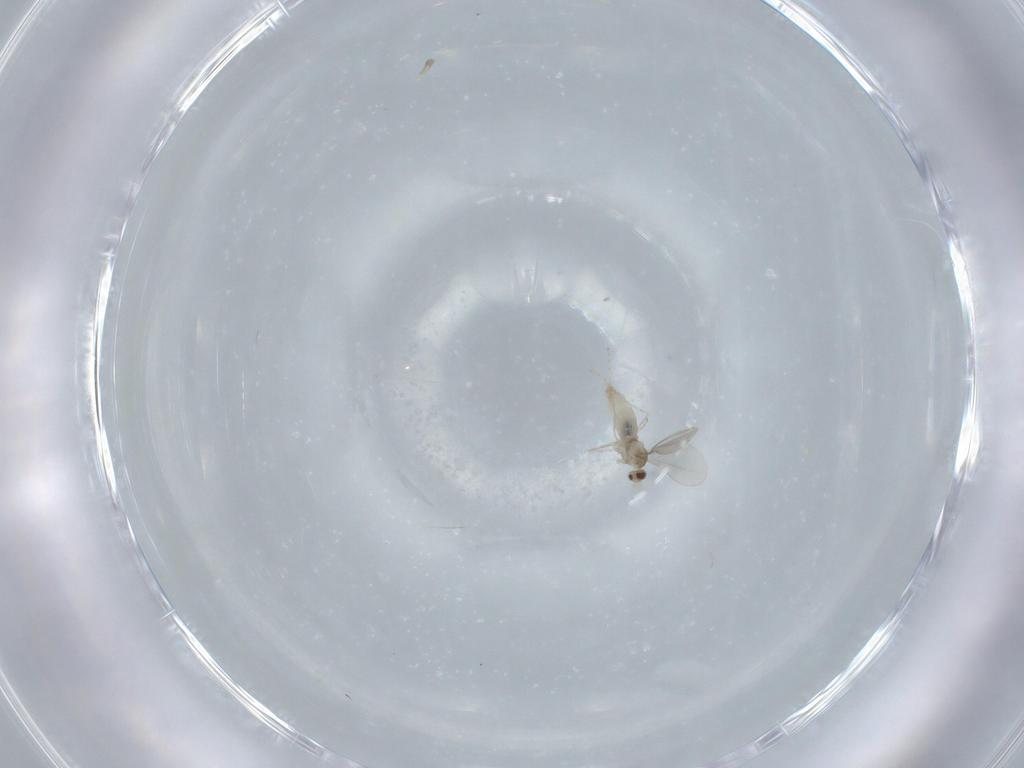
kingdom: Animalia
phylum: Arthropoda
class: Insecta
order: Diptera
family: Cecidomyiidae
